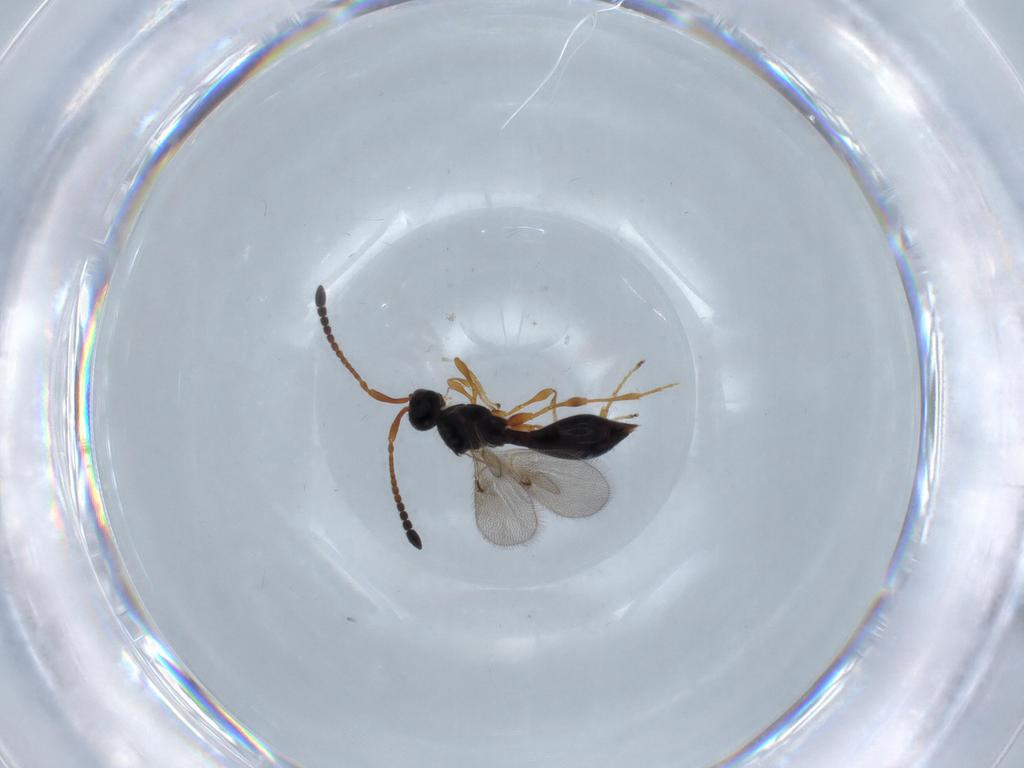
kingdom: Animalia
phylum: Arthropoda
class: Insecta
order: Hymenoptera
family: Diapriidae
